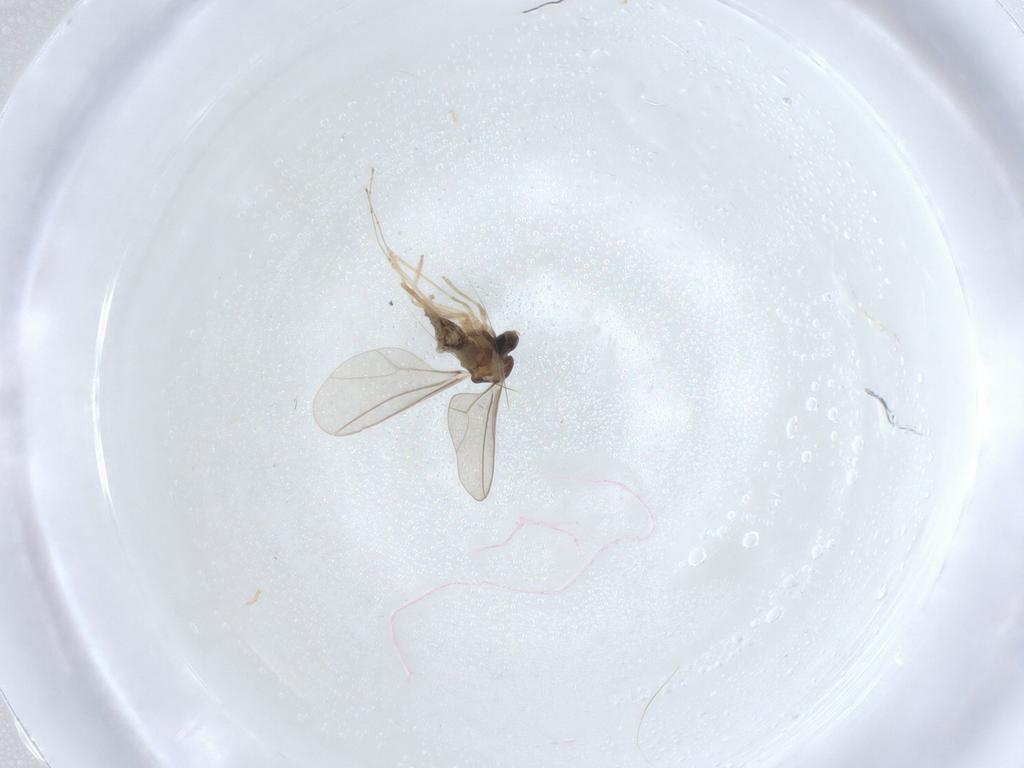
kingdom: Animalia
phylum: Arthropoda
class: Insecta
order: Diptera
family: Cecidomyiidae
